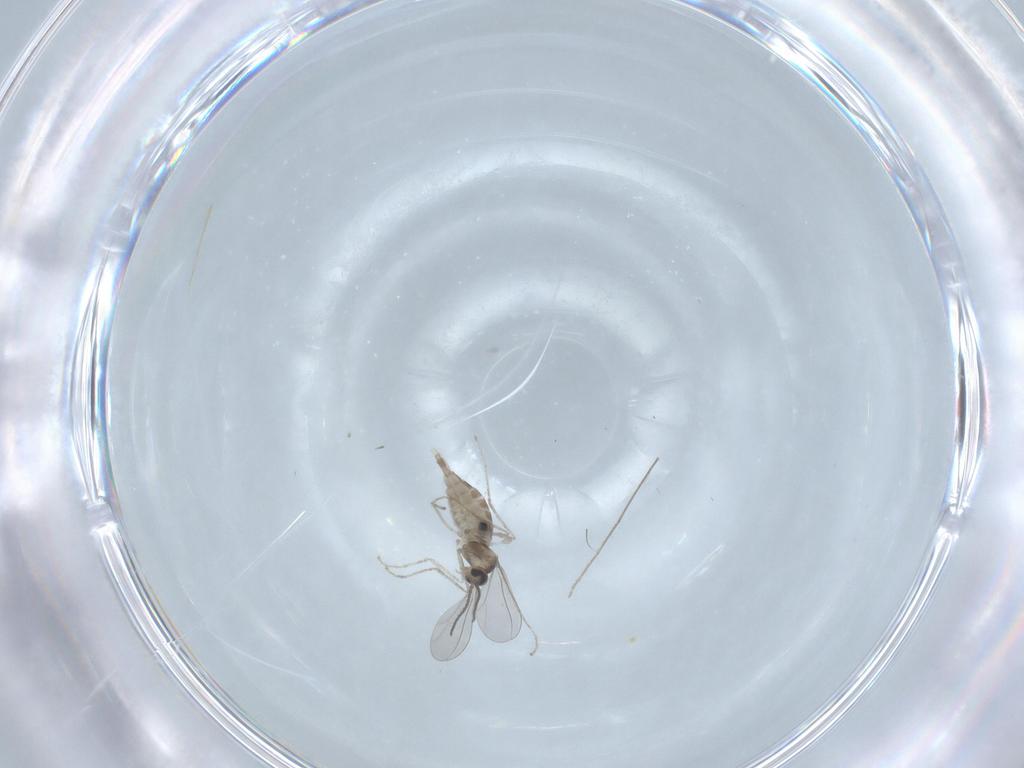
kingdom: Animalia
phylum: Arthropoda
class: Insecta
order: Diptera
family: Chironomidae
